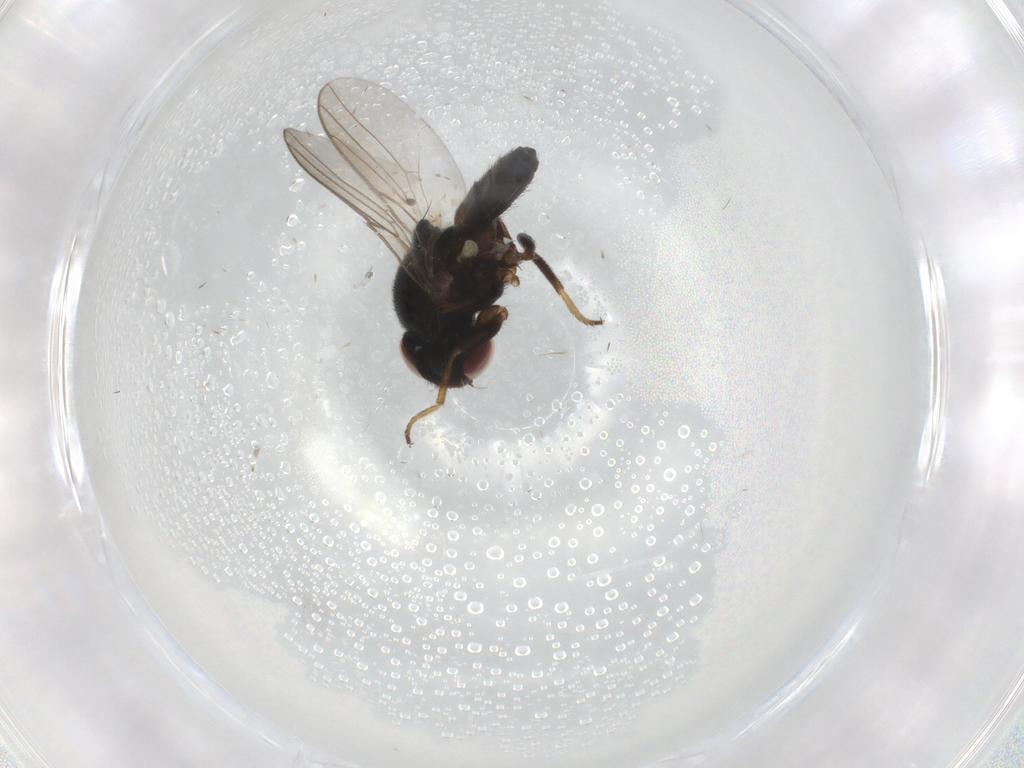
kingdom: Animalia
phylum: Arthropoda
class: Insecta
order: Diptera
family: Chloropidae
